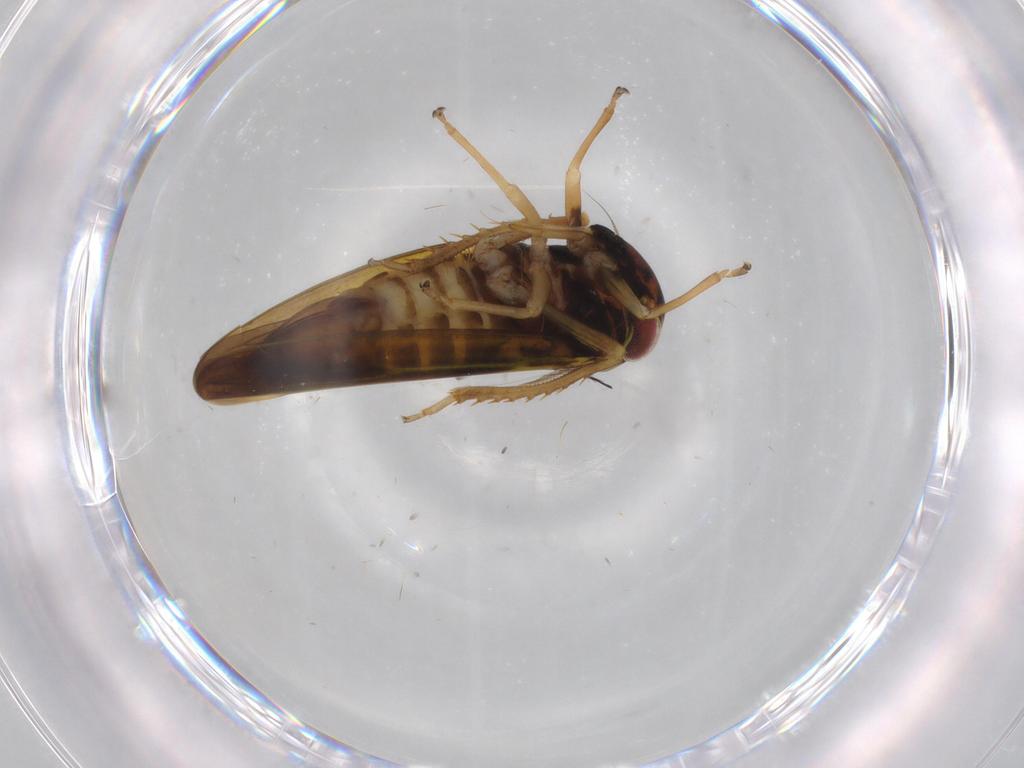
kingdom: Animalia
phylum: Arthropoda
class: Insecta
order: Hemiptera
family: Cicadellidae
